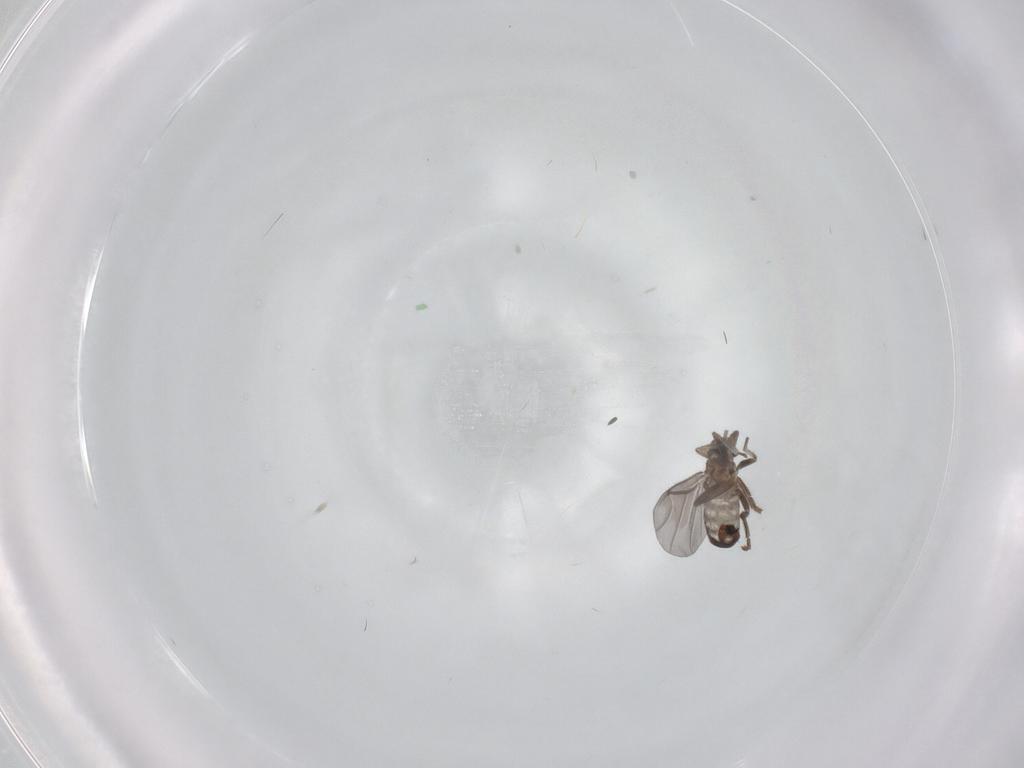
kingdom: Animalia
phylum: Arthropoda
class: Insecta
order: Diptera
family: Phoridae
